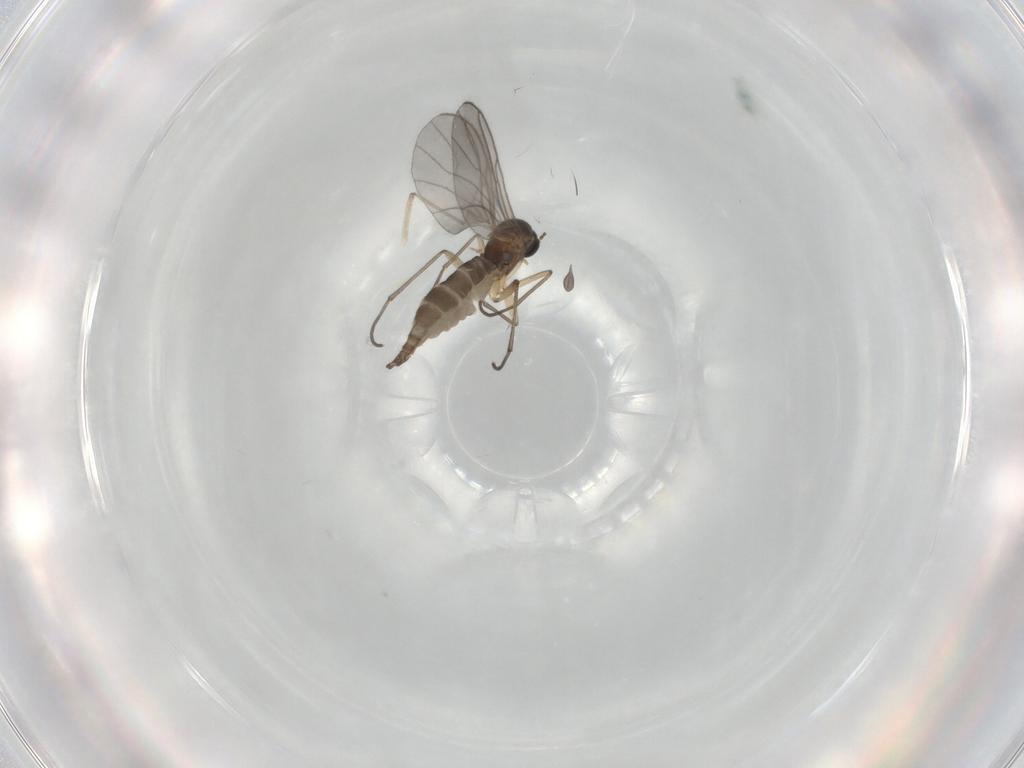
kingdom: Animalia
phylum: Arthropoda
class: Insecta
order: Diptera
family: Sciaridae
